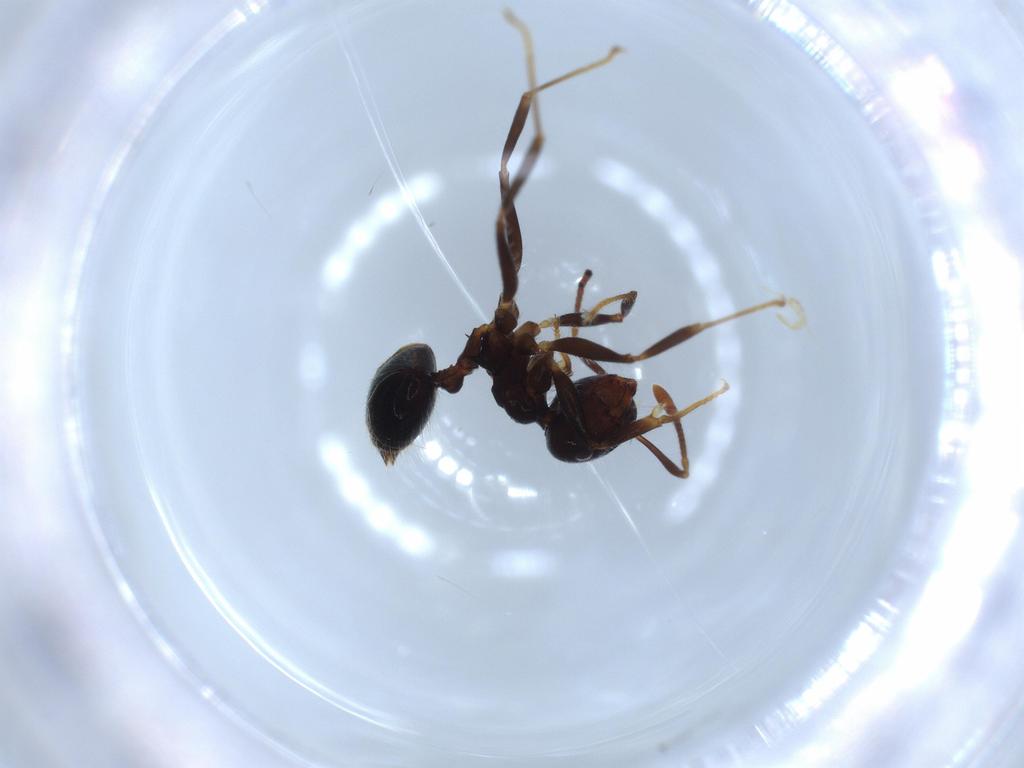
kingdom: Animalia
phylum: Arthropoda
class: Insecta
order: Hymenoptera
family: Formicidae
